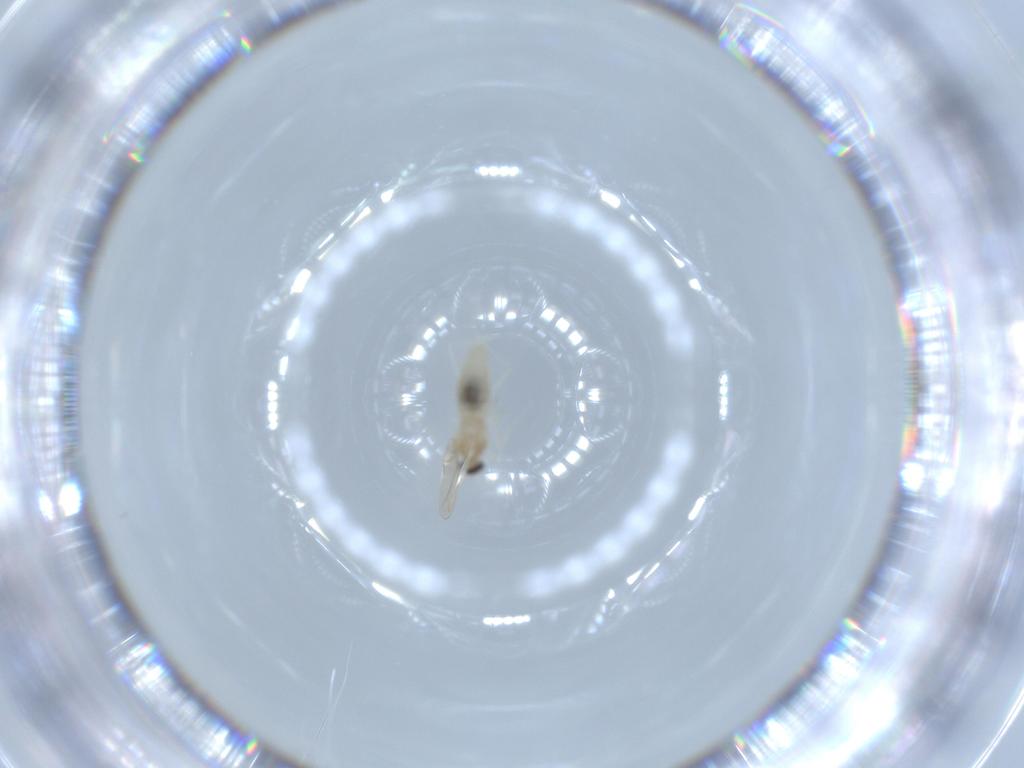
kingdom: Animalia
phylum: Arthropoda
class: Insecta
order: Diptera
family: Cecidomyiidae
